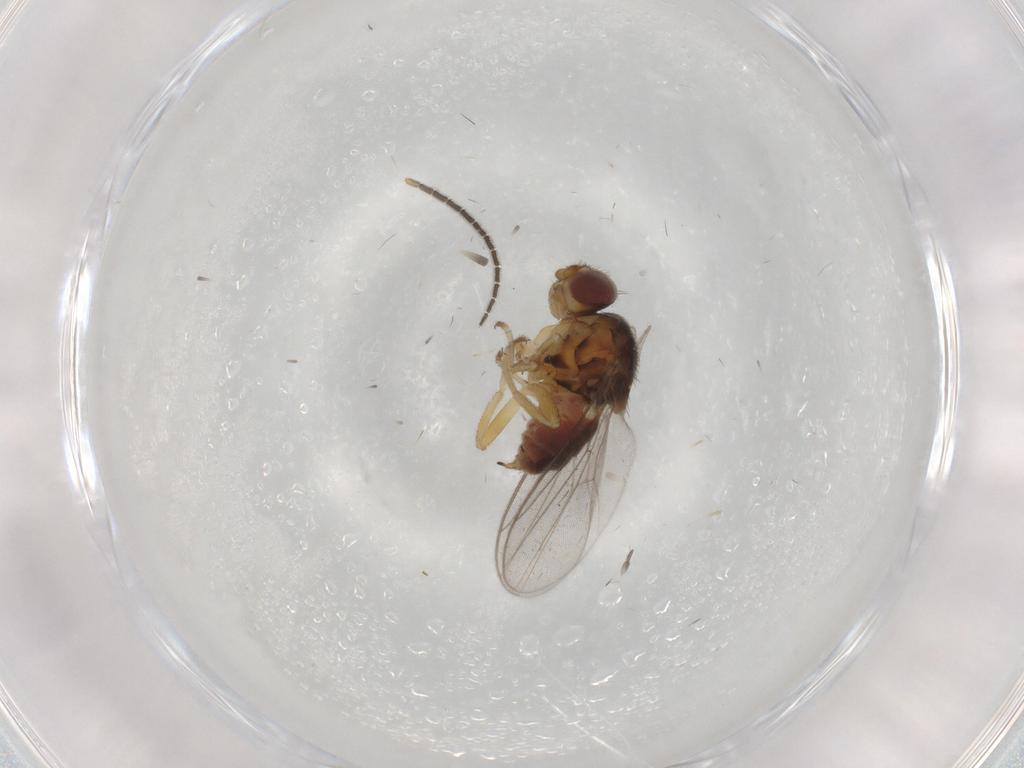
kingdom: Animalia
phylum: Arthropoda
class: Insecta
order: Diptera
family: Chloropidae
